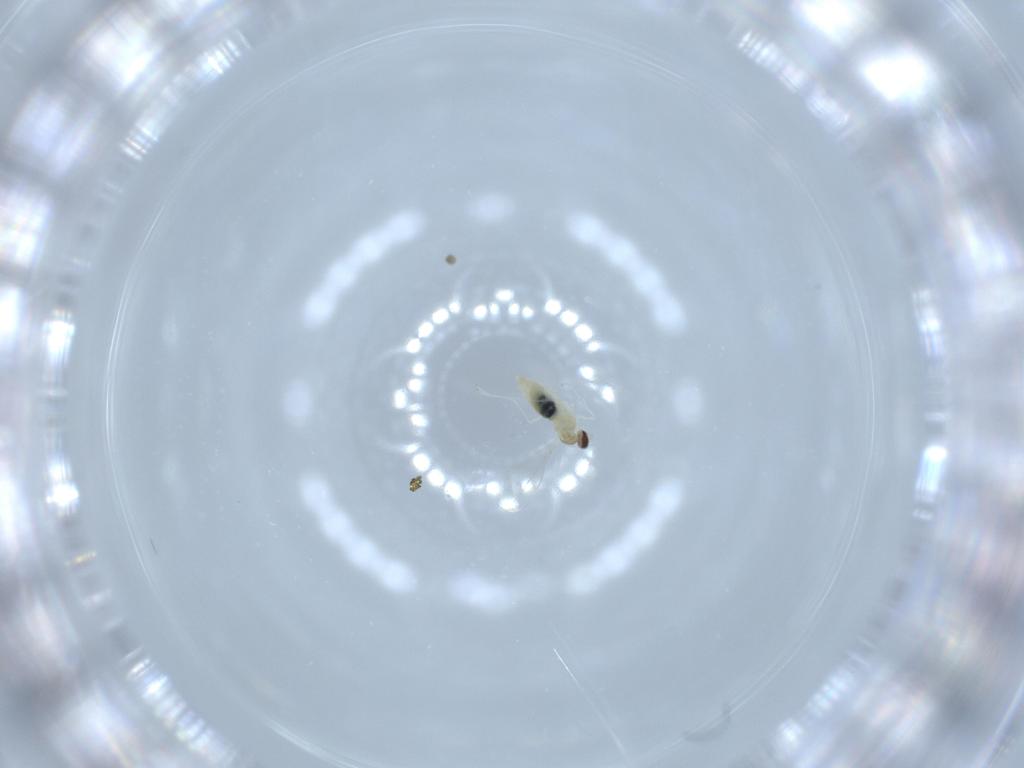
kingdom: Animalia
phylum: Arthropoda
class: Insecta
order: Diptera
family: Cecidomyiidae
